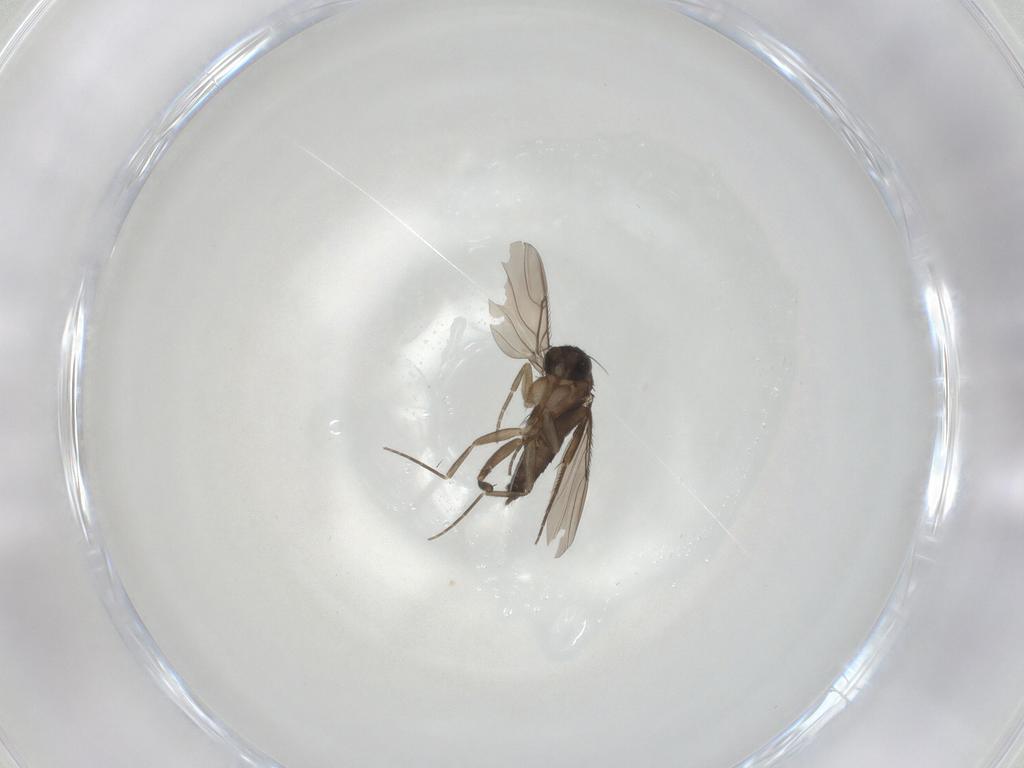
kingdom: Animalia
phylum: Arthropoda
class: Insecta
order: Diptera
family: Phoridae
